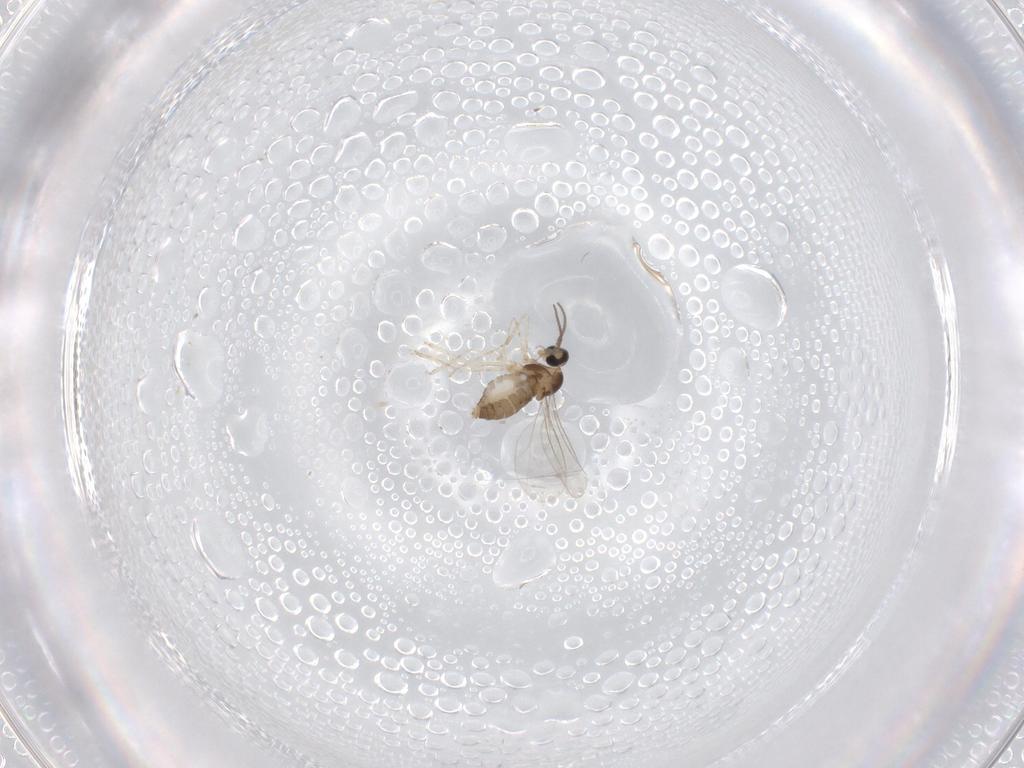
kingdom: Animalia
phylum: Arthropoda
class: Insecta
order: Diptera
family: Cecidomyiidae
